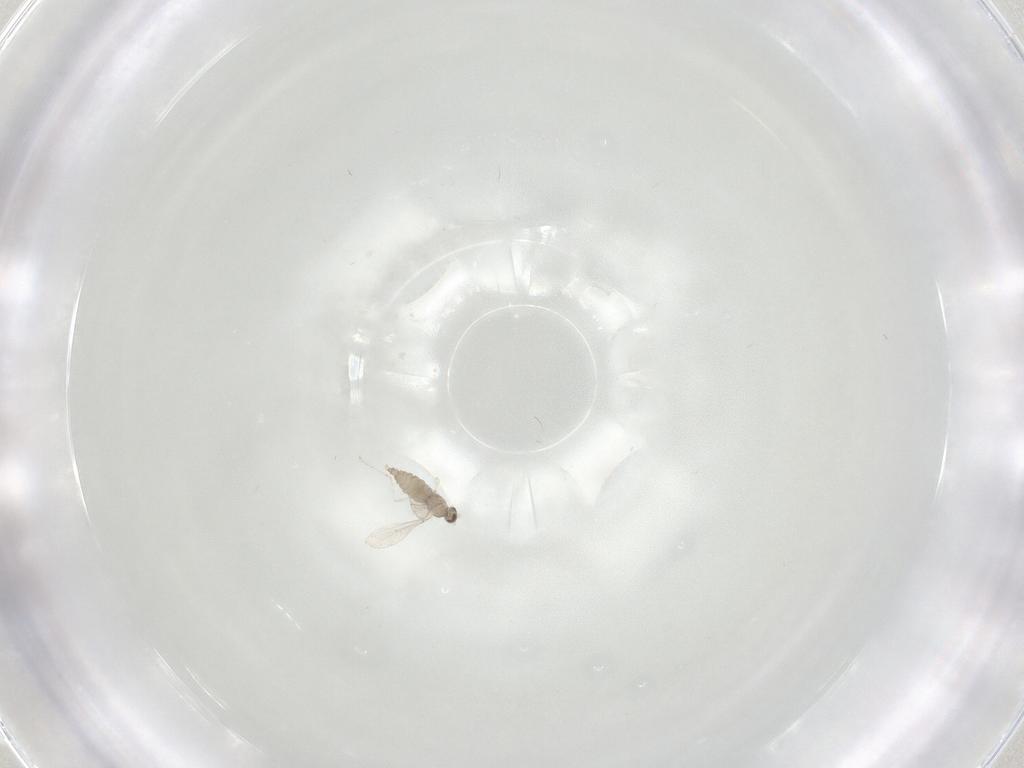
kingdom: Animalia
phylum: Arthropoda
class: Insecta
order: Diptera
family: Cecidomyiidae
